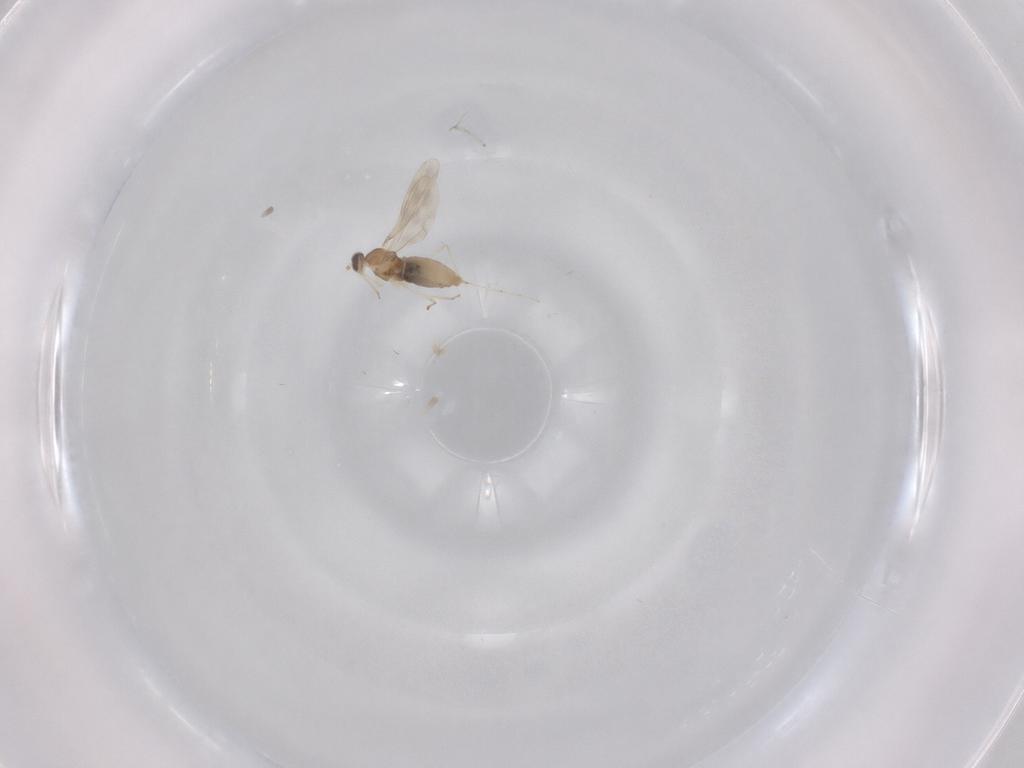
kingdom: Animalia
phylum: Arthropoda
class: Insecta
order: Diptera
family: Cecidomyiidae
